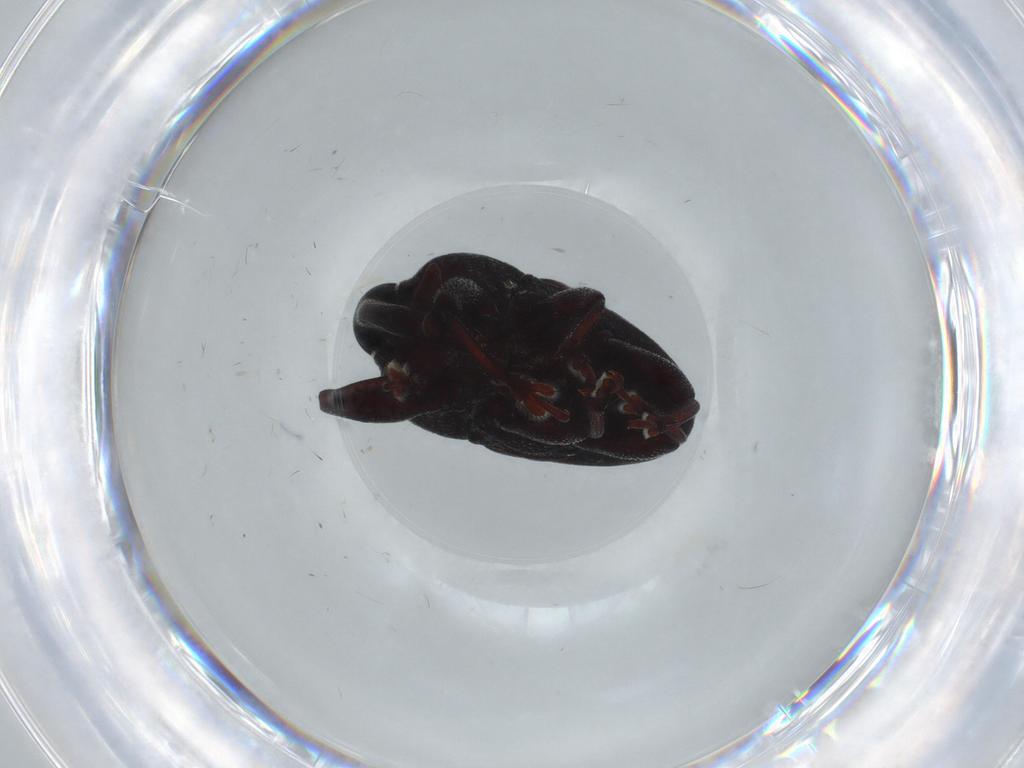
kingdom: Animalia
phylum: Arthropoda
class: Insecta
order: Coleoptera
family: Curculionidae
